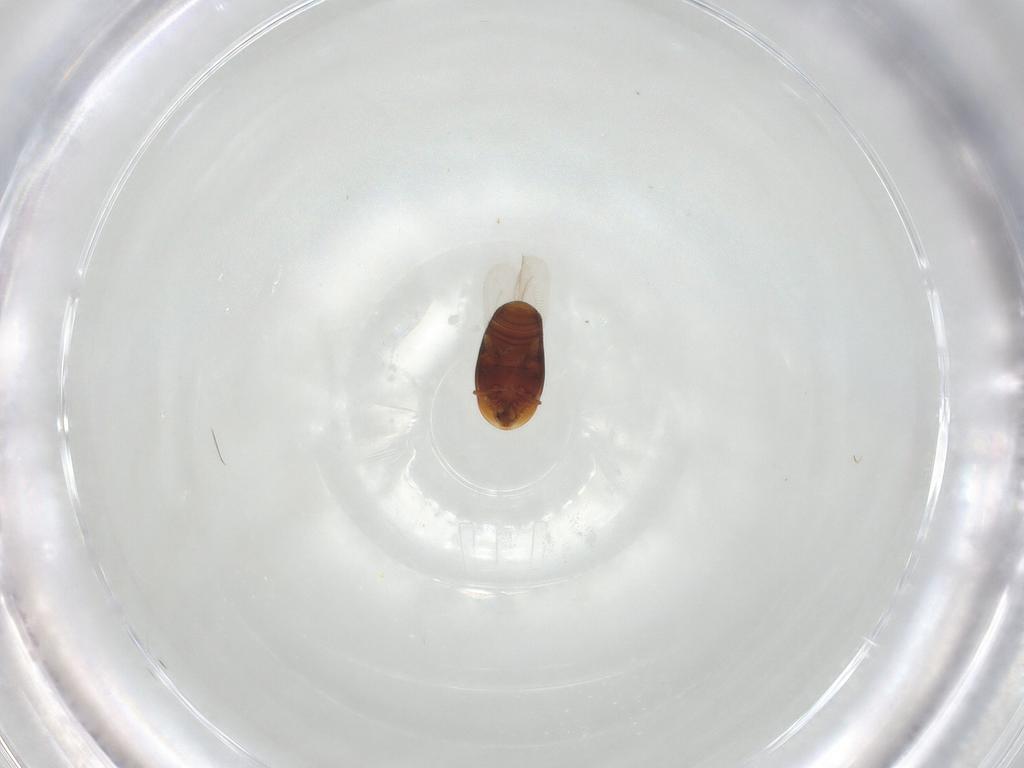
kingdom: Animalia
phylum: Arthropoda
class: Insecta
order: Coleoptera
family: Corylophidae
